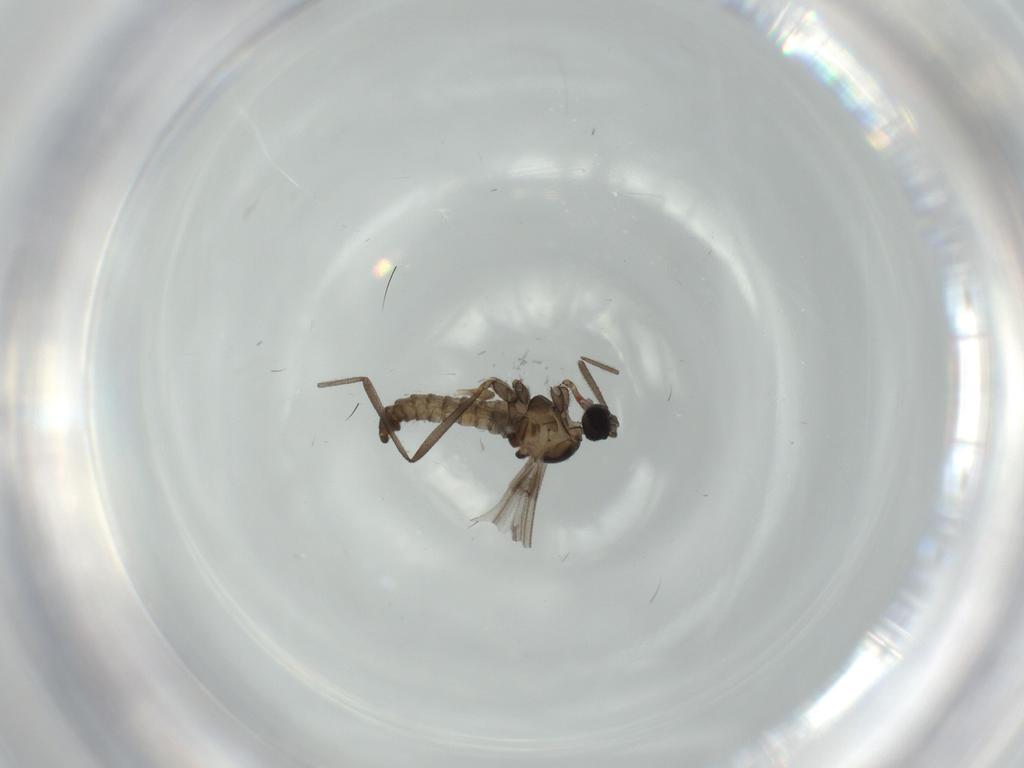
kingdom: Animalia
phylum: Arthropoda
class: Insecta
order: Diptera
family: Cecidomyiidae
